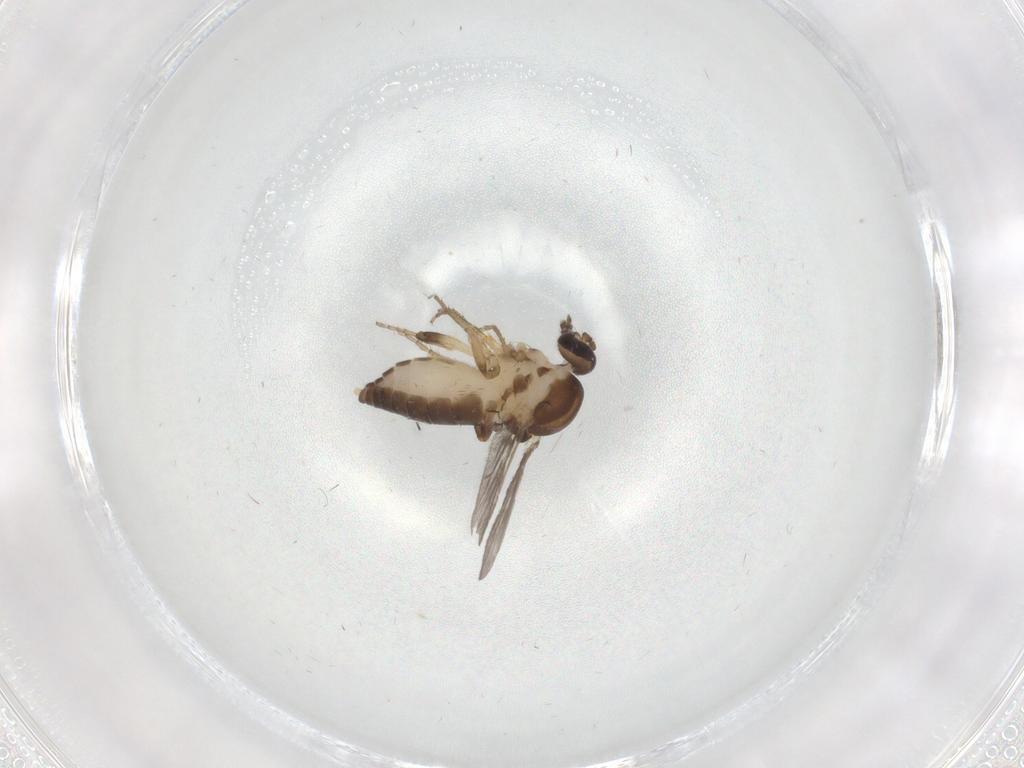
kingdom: Animalia
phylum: Arthropoda
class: Insecta
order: Diptera
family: Ceratopogonidae
